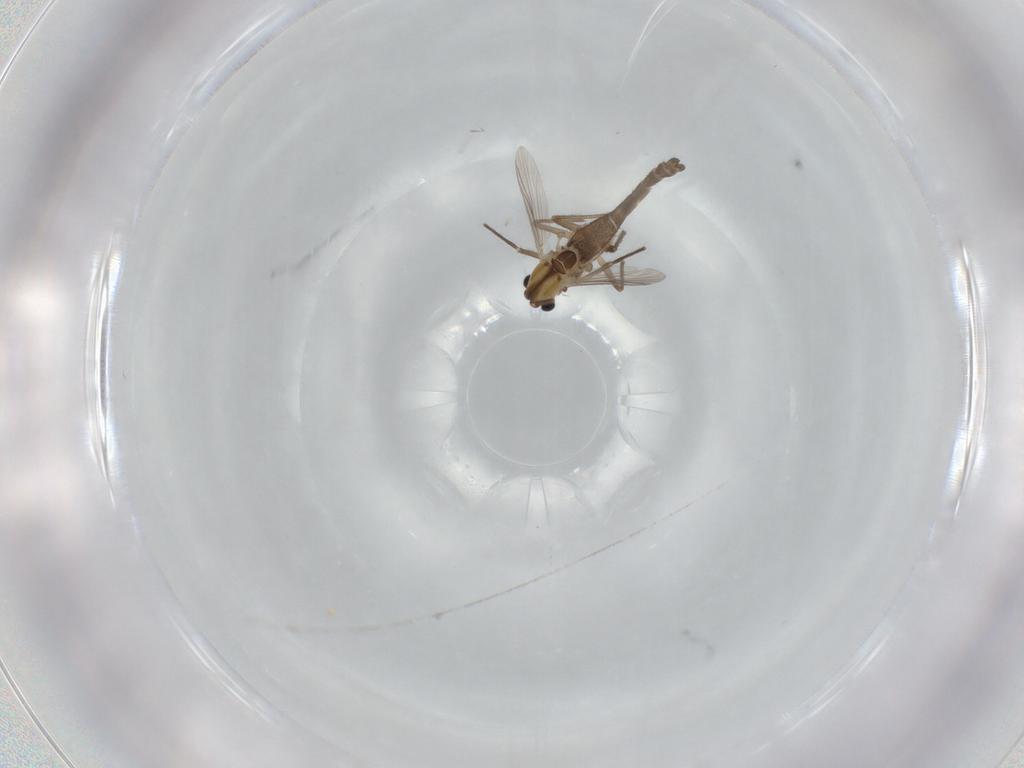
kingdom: Animalia
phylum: Arthropoda
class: Insecta
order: Diptera
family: Chironomidae
